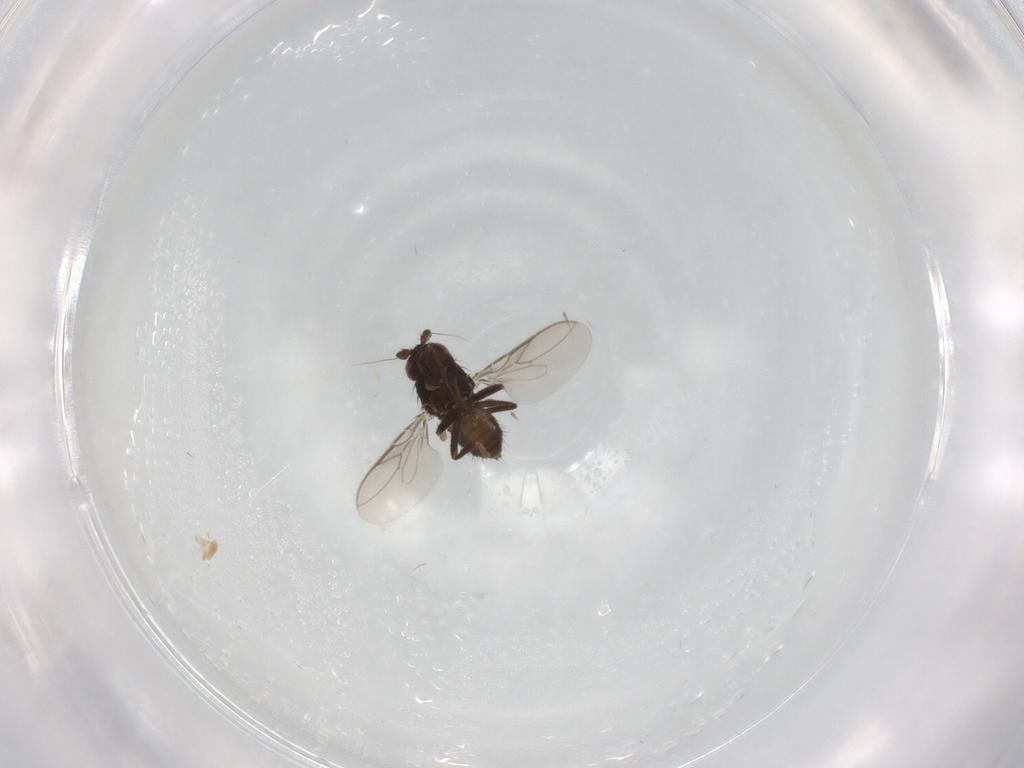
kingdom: Animalia
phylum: Arthropoda
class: Insecta
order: Diptera
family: Sphaeroceridae
